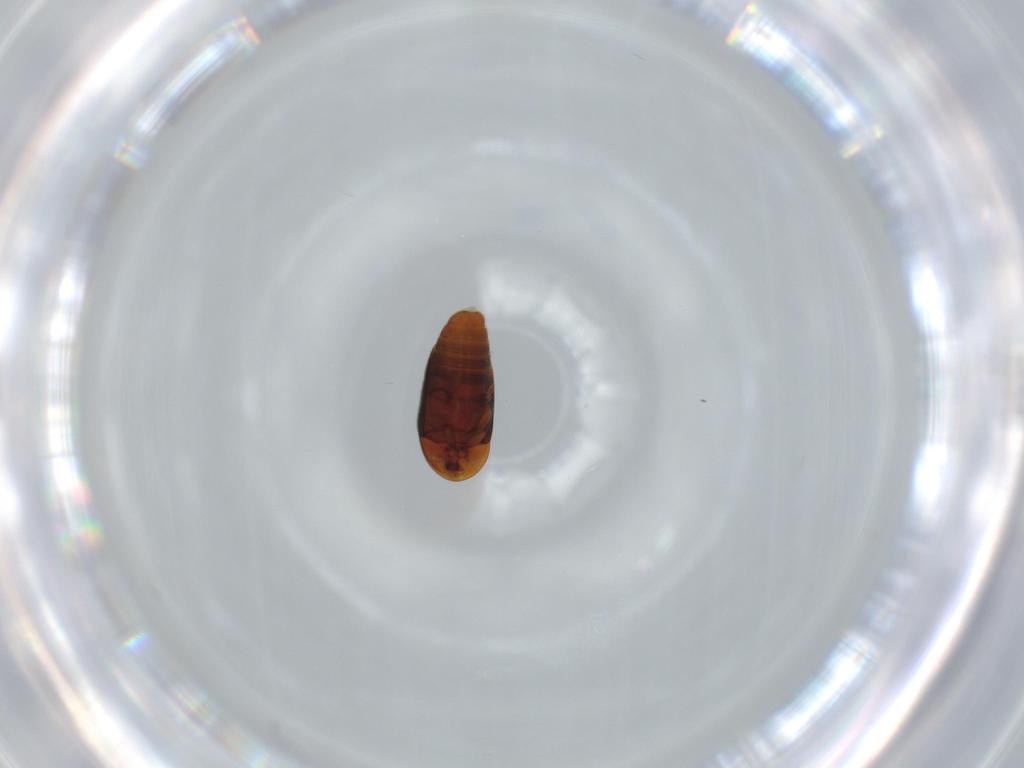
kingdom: Animalia
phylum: Arthropoda
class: Insecta
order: Coleoptera
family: Corylophidae
